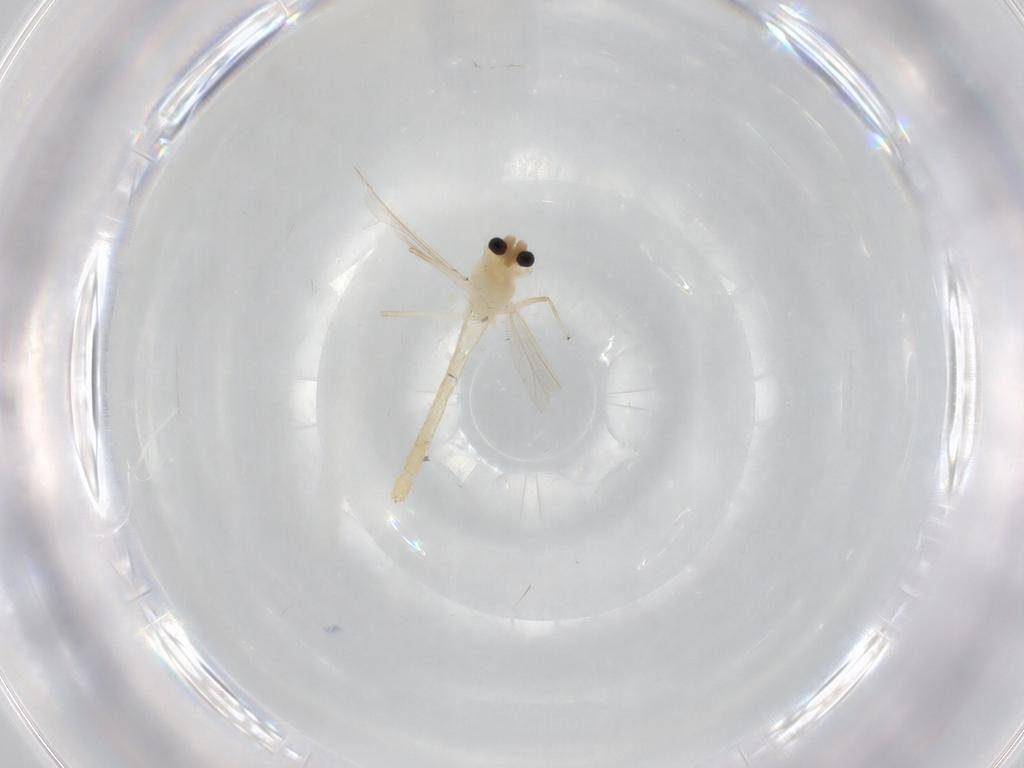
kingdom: Animalia
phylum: Arthropoda
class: Insecta
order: Diptera
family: Chironomidae
